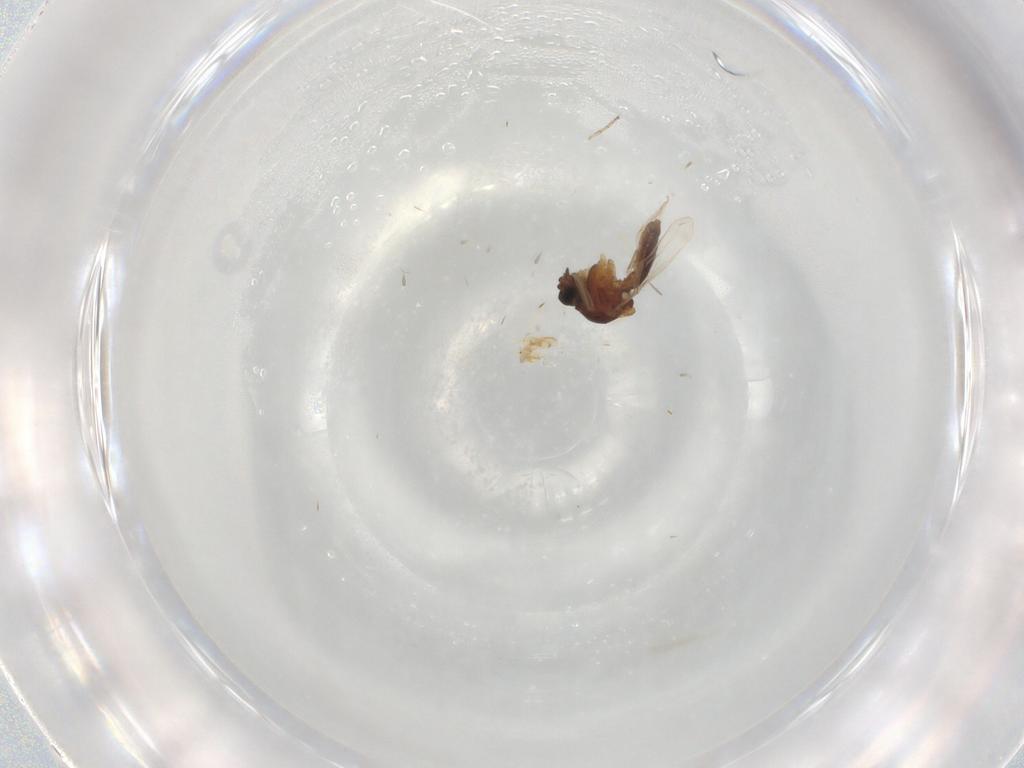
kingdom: Animalia
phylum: Arthropoda
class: Insecta
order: Diptera
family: Ceratopogonidae
